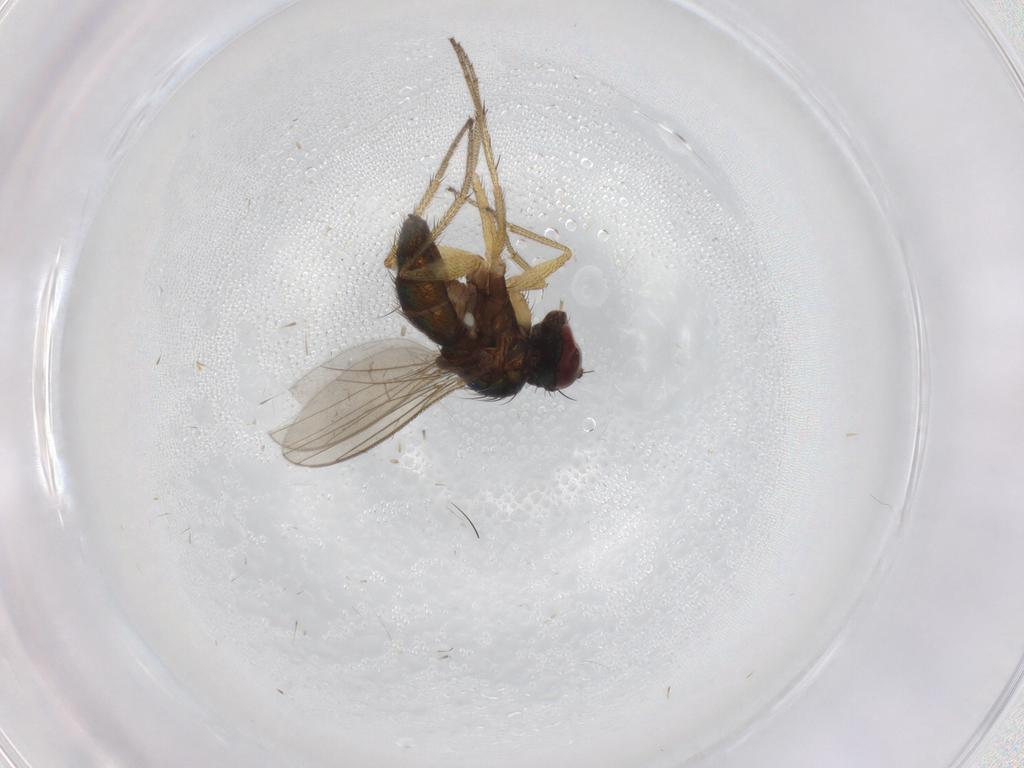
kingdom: Animalia
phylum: Arthropoda
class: Insecta
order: Diptera
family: Dolichopodidae
